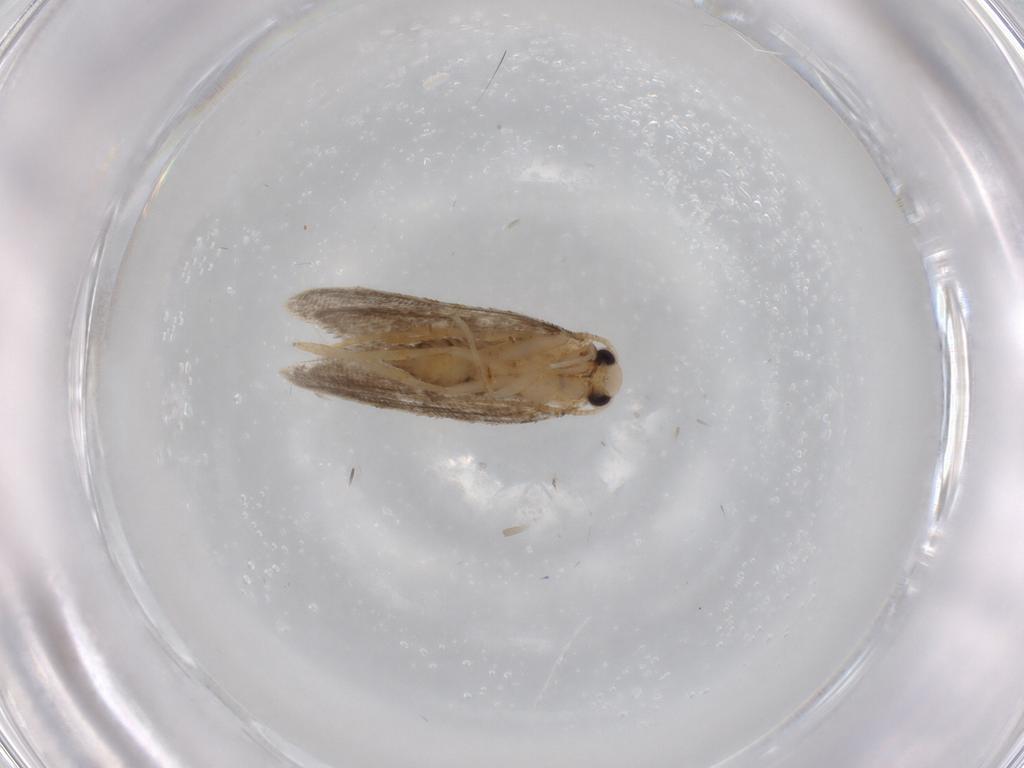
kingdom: Animalia
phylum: Arthropoda
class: Insecta
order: Lepidoptera
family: Psychidae
